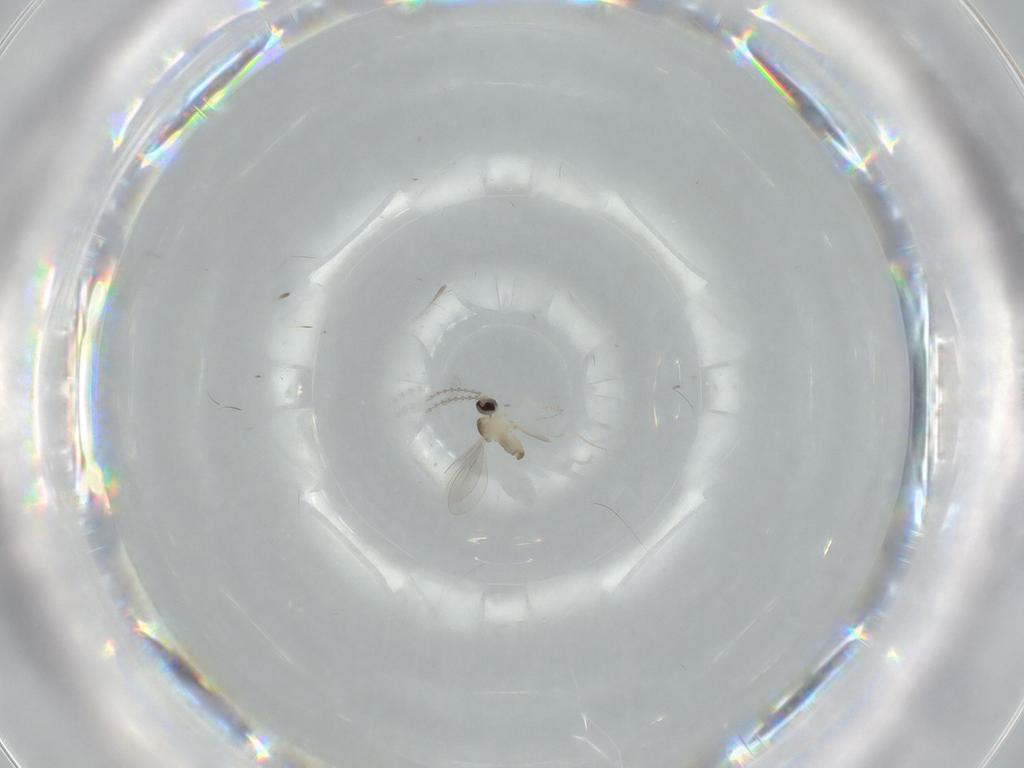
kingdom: Animalia
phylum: Arthropoda
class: Insecta
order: Diptera
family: Cecidomyiidae
